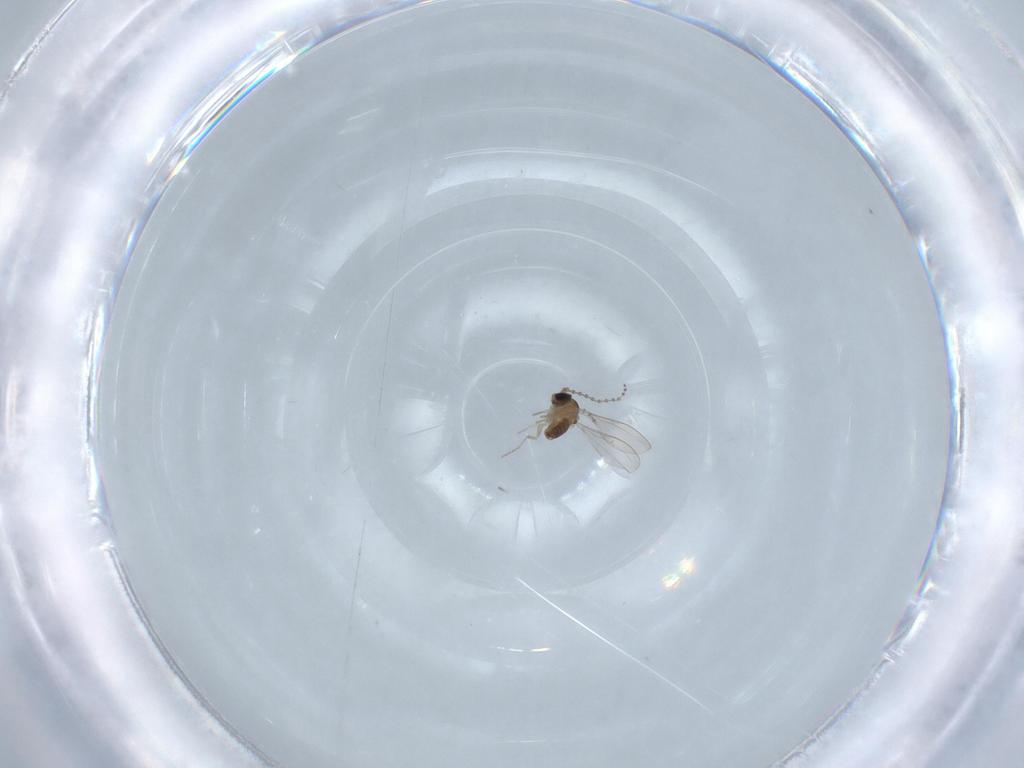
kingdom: Animalia
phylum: Arthropoda
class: Insecta
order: Diptera
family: Cecidomyiidae
